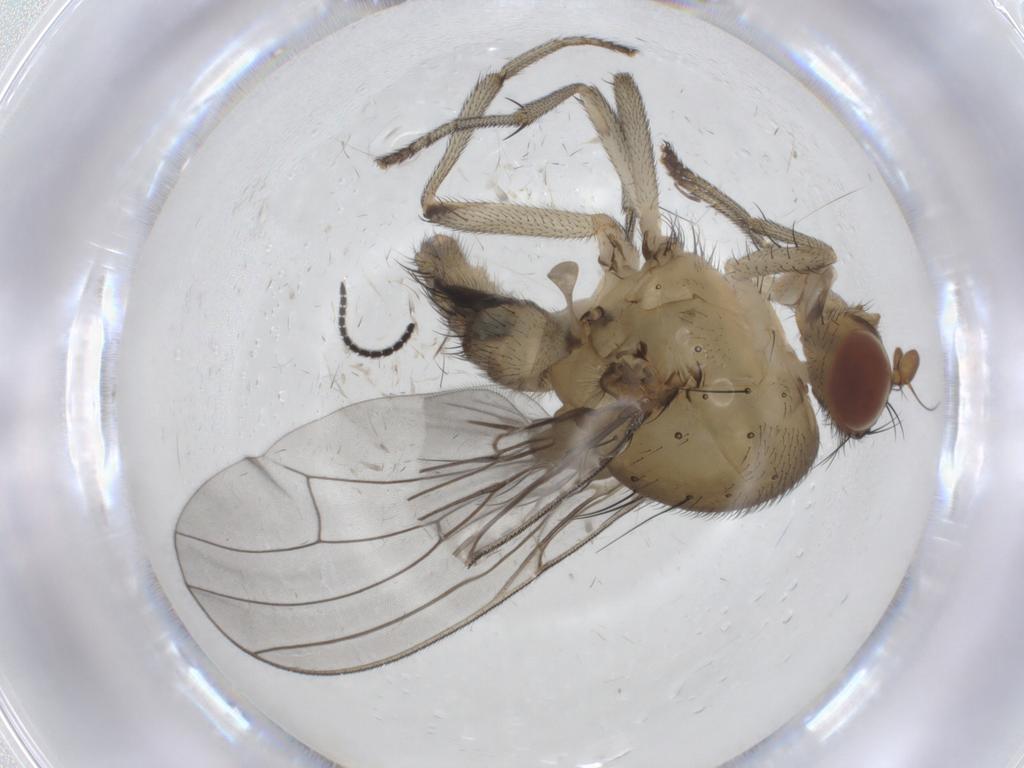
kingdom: Animalia
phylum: Arthropoda
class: Insecta
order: Diptera
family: Sciaridae
